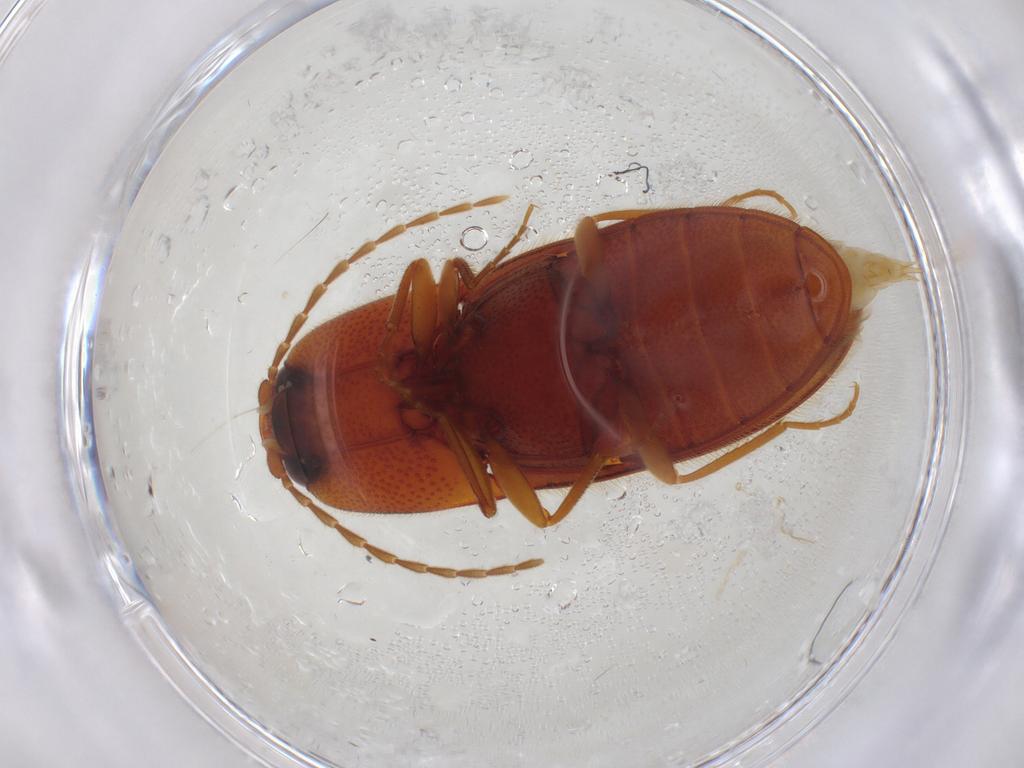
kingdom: Animalia
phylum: Arthropoda
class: Insecta
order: Coleoptera
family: Elateridae
